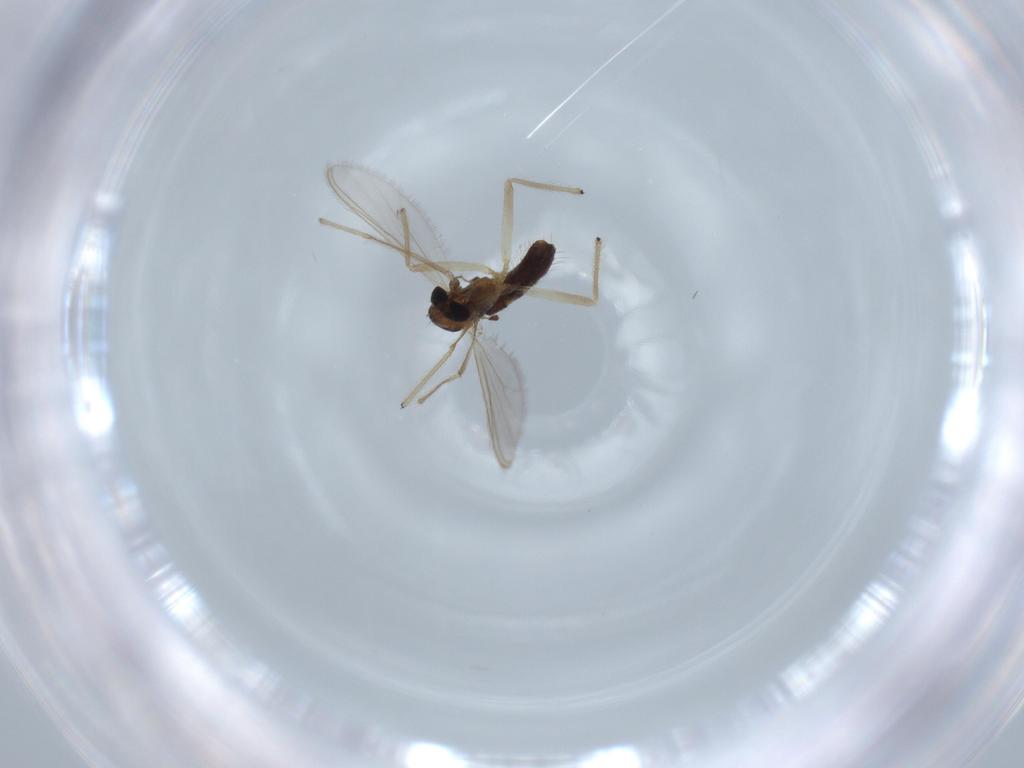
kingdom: Animalia
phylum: Arthropoda
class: Insecta
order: Diptera
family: Chironomidae
